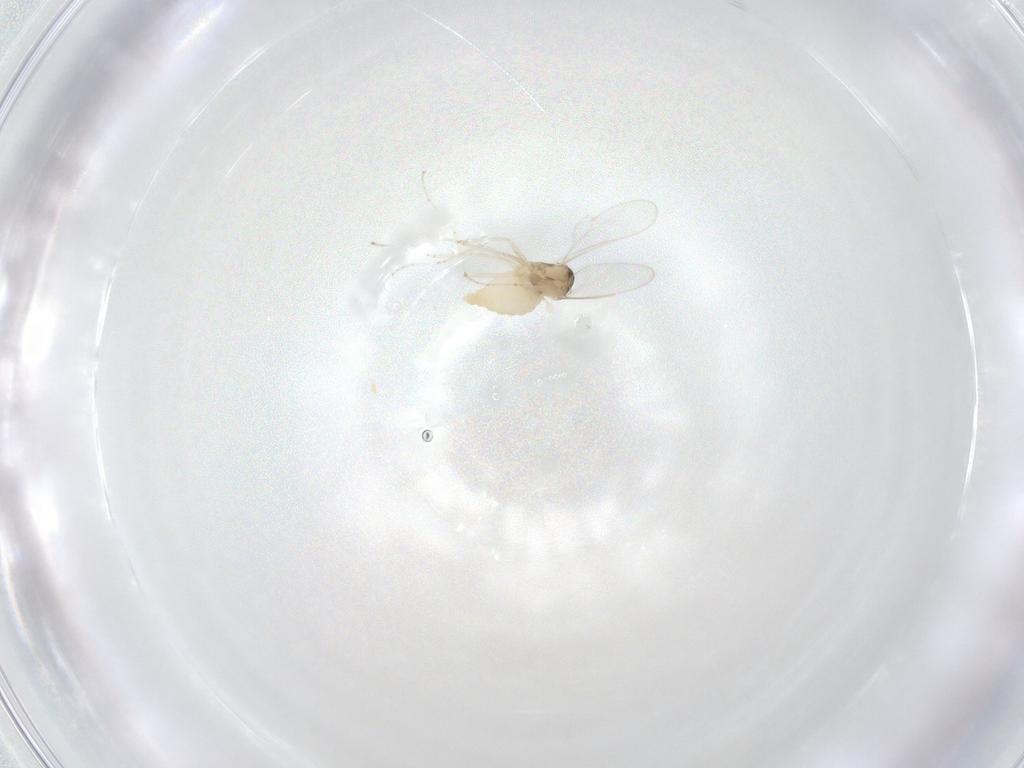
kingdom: Animalia
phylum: Arthropoda
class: Insecta
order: Diptera
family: Cecidomyiidae
